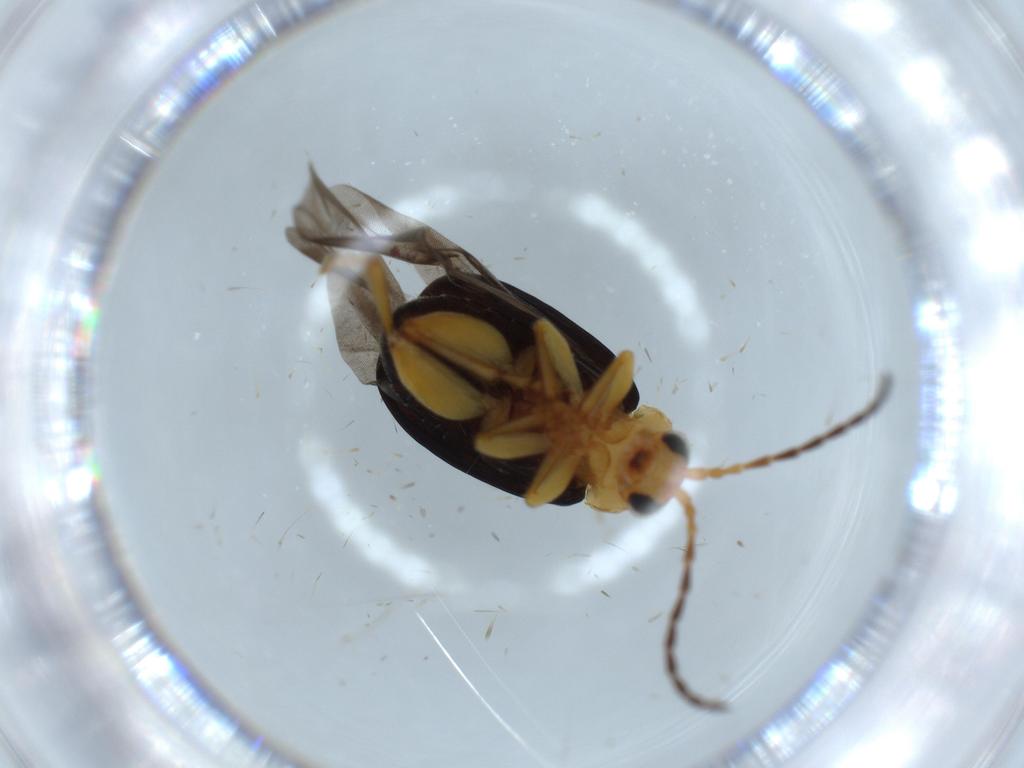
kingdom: Animalia
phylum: Arthropoda
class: Insecta
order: Coleoptera
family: Chrysomelidae
